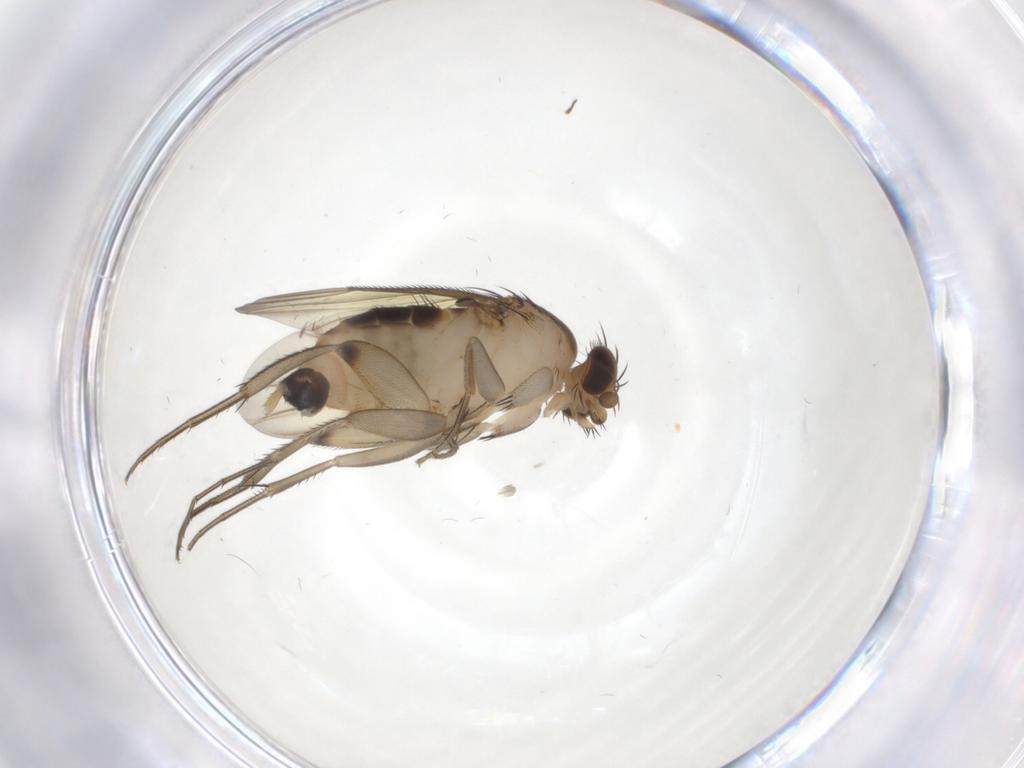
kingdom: Animalia
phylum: Arthropoda
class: Insecta
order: Diptera
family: Phoridae
